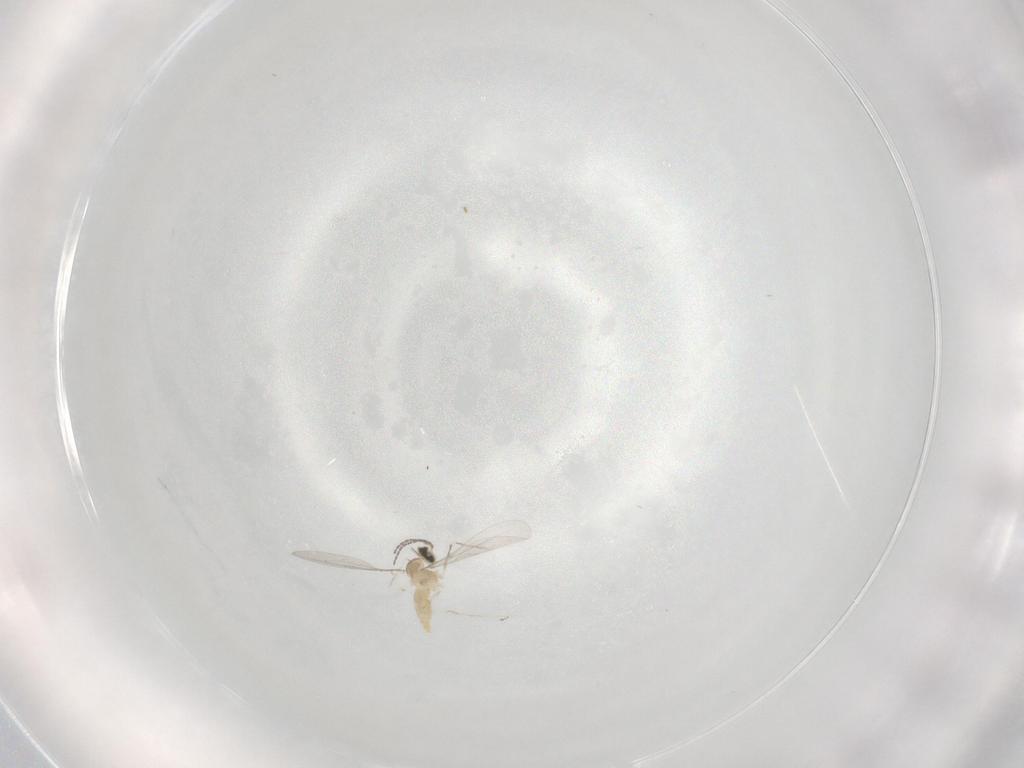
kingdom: Animalia
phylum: Arthropoda
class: Insecta
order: Diptera
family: Cecidomyiidae
